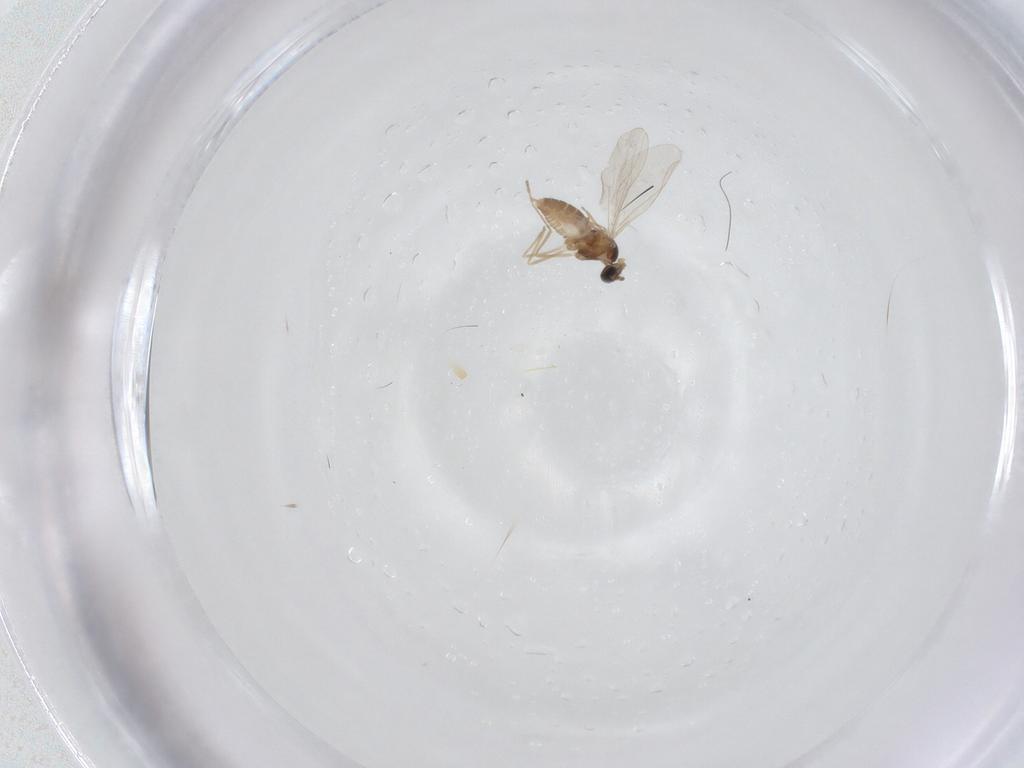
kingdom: Animalia
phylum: Arthropoda
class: Insecta
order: Diptera
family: Cecidomyiidae
